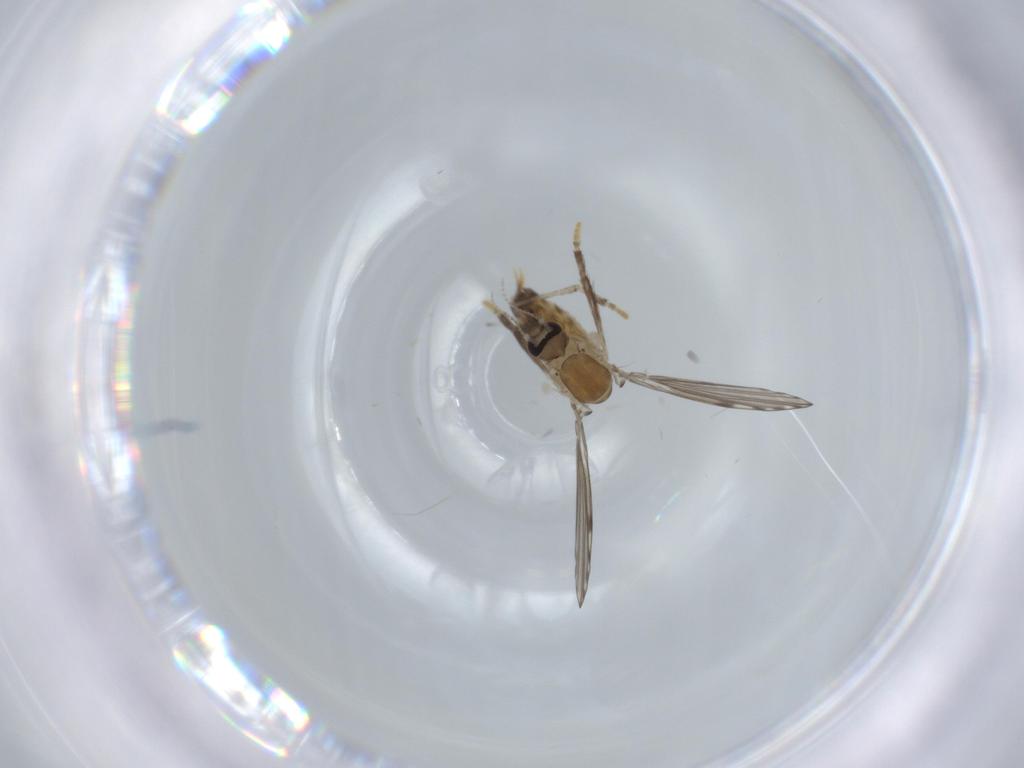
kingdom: Animalia
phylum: Arthropoda
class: Insecta
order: Diptera
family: Psychodidae
